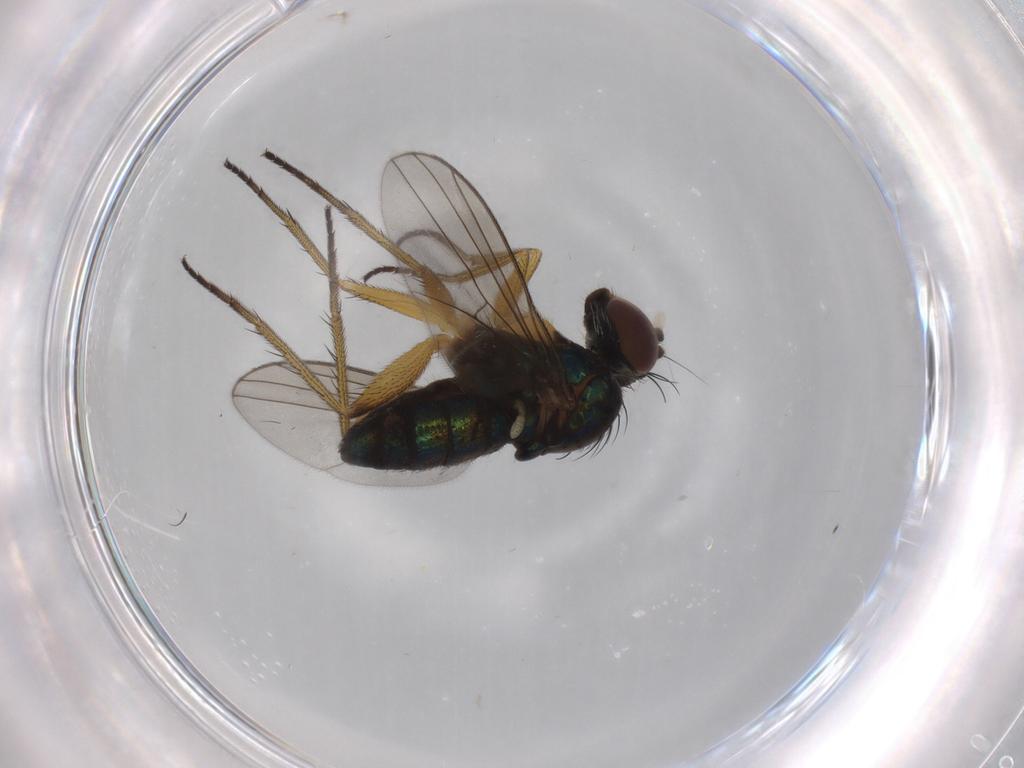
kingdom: Animalia
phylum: Arthropoda
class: Insecta
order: Diptera
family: Dolichopodidae
